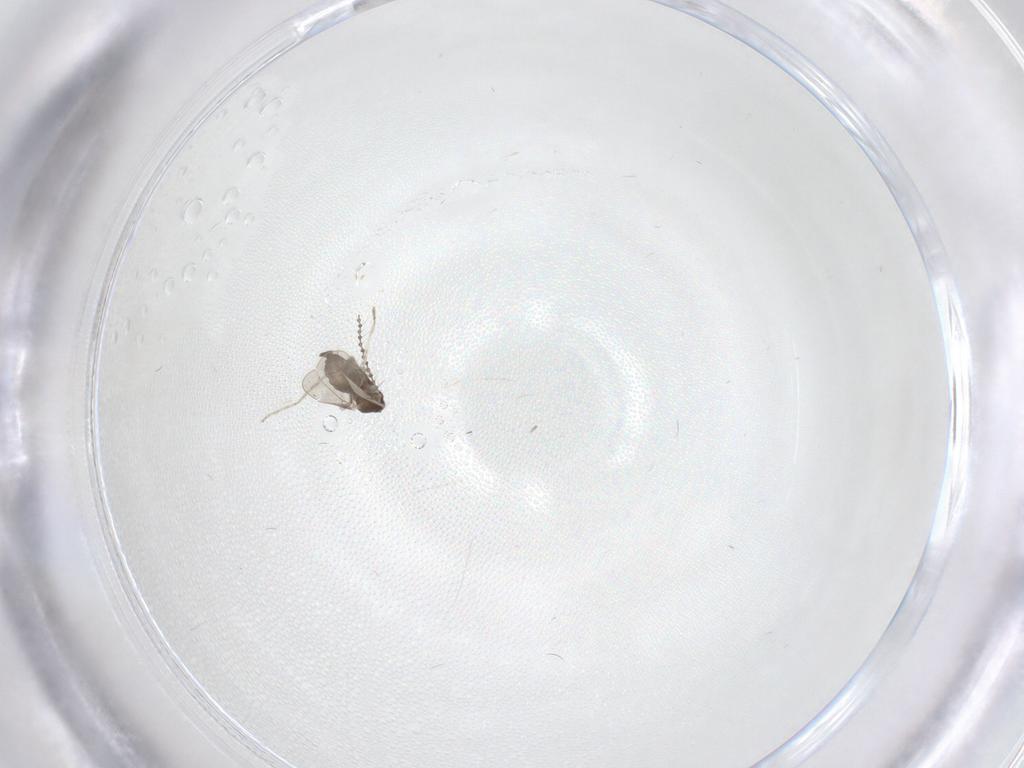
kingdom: Animalia
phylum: Arthropoda
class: Insecta
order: Diptera
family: Cecidomyiidae
